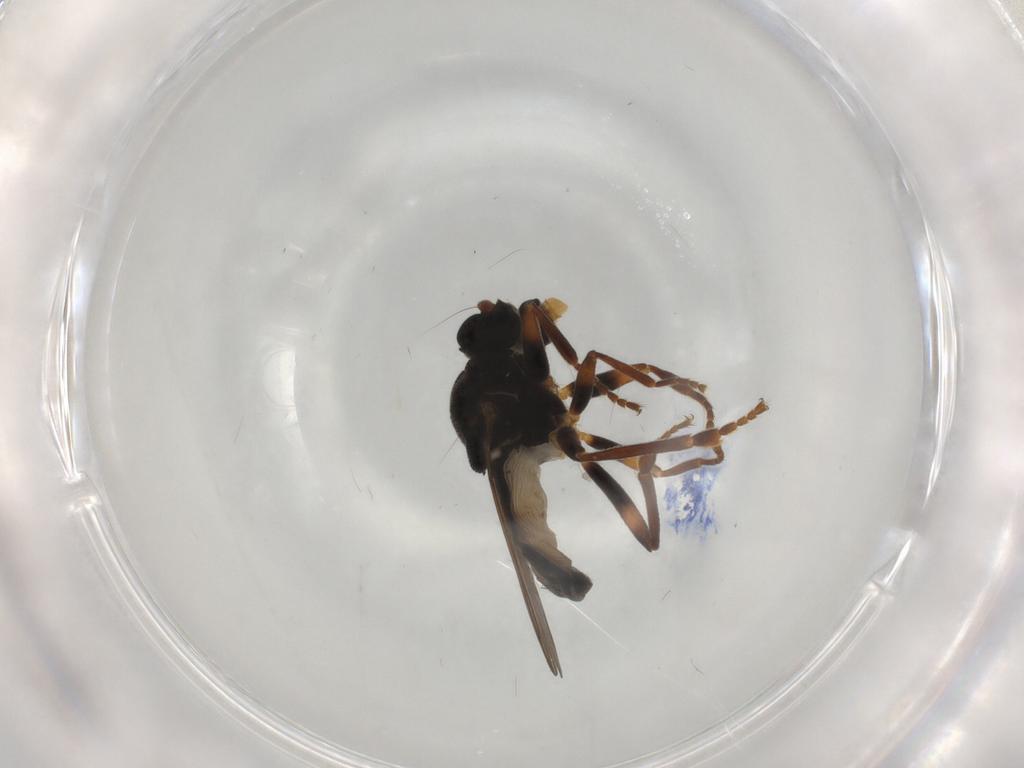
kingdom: Animalia
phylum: Arthropoda
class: Insecta
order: Diptera
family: Sphaeroceridae
